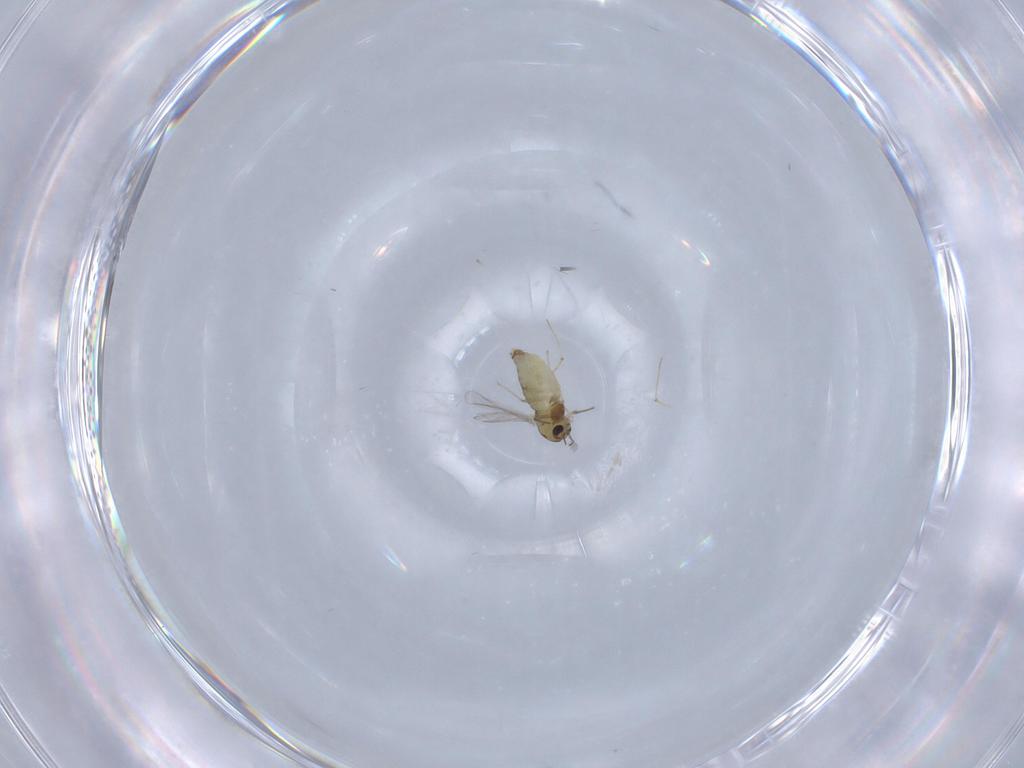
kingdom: Animalia
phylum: Arthropoda
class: Insecta
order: Diptera
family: Chironomidae
